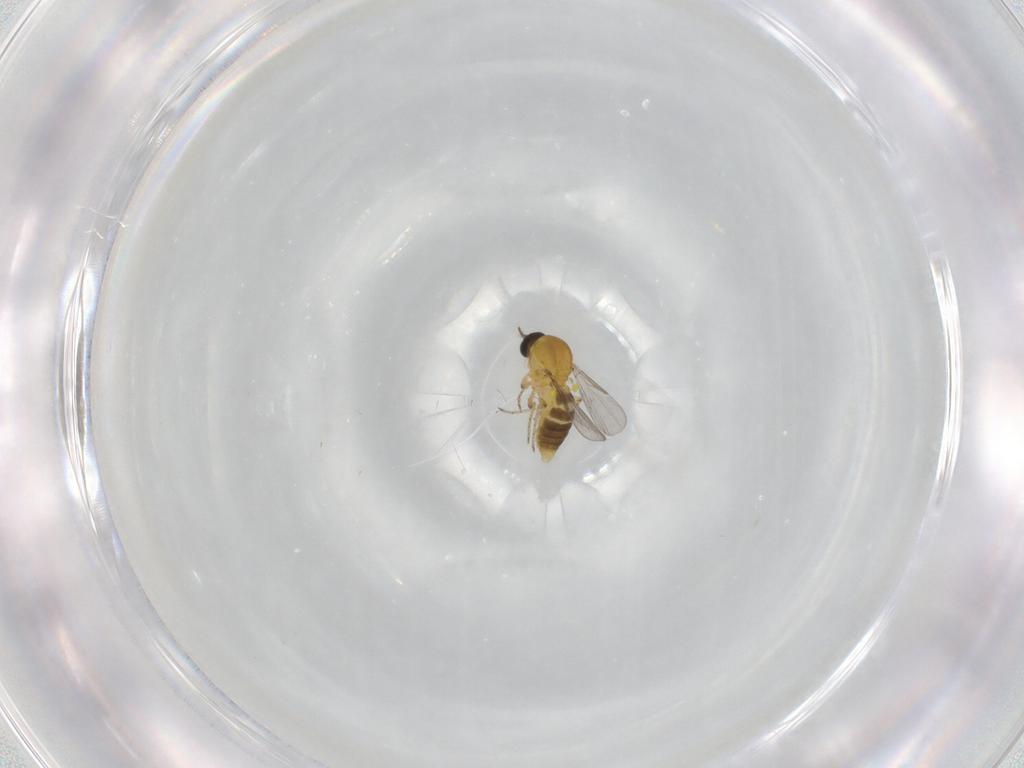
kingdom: Animalia
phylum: Arthropoda
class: Insecta
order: Diptera
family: Ceratopogonidae
